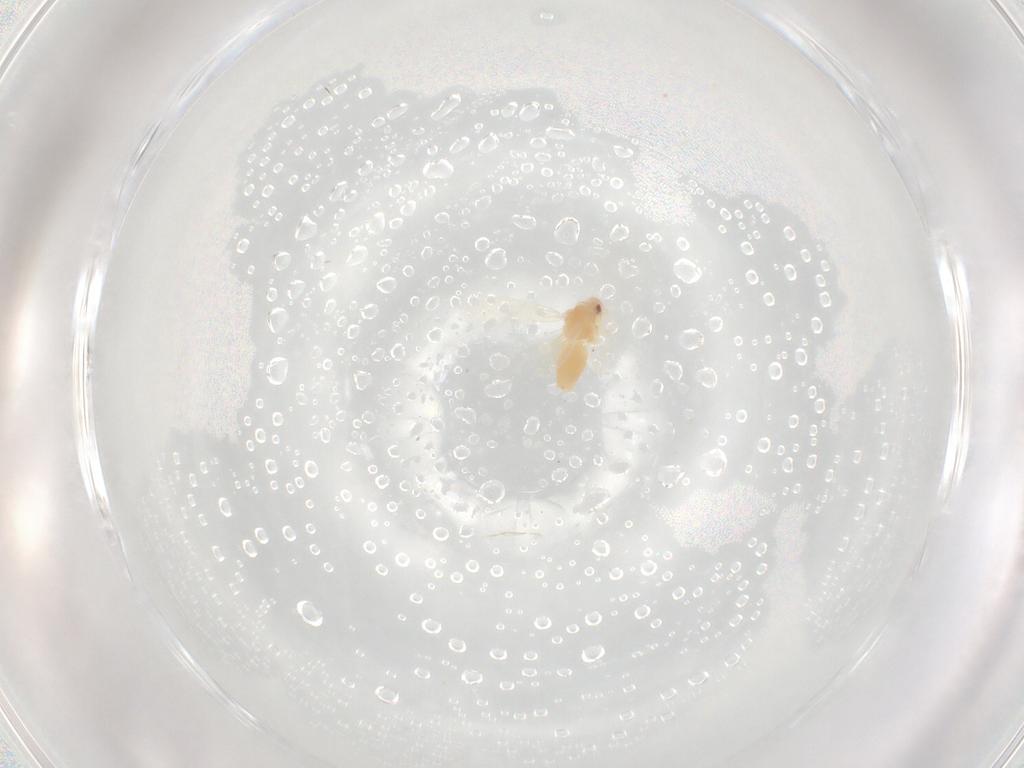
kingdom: Animalia
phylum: Arthropoda
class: Insecta
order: Hemiptera
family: Aleyrodidae
